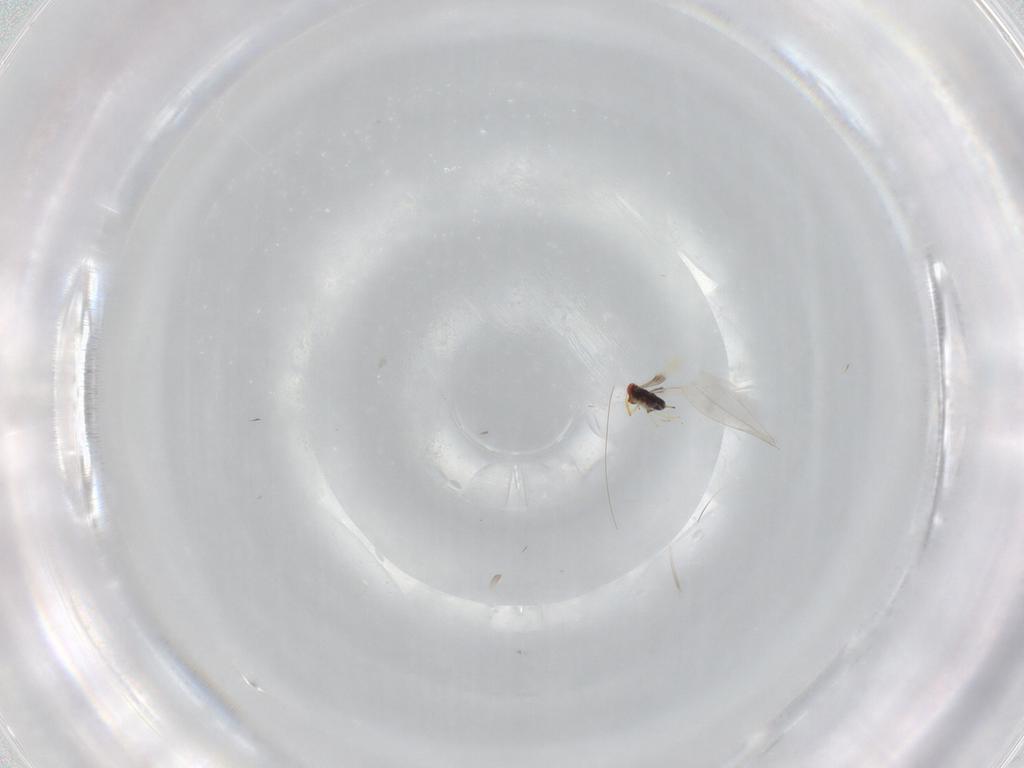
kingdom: Animalia
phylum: Arthropoda
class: Insecta
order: Hymenoptera
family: Azotidae
